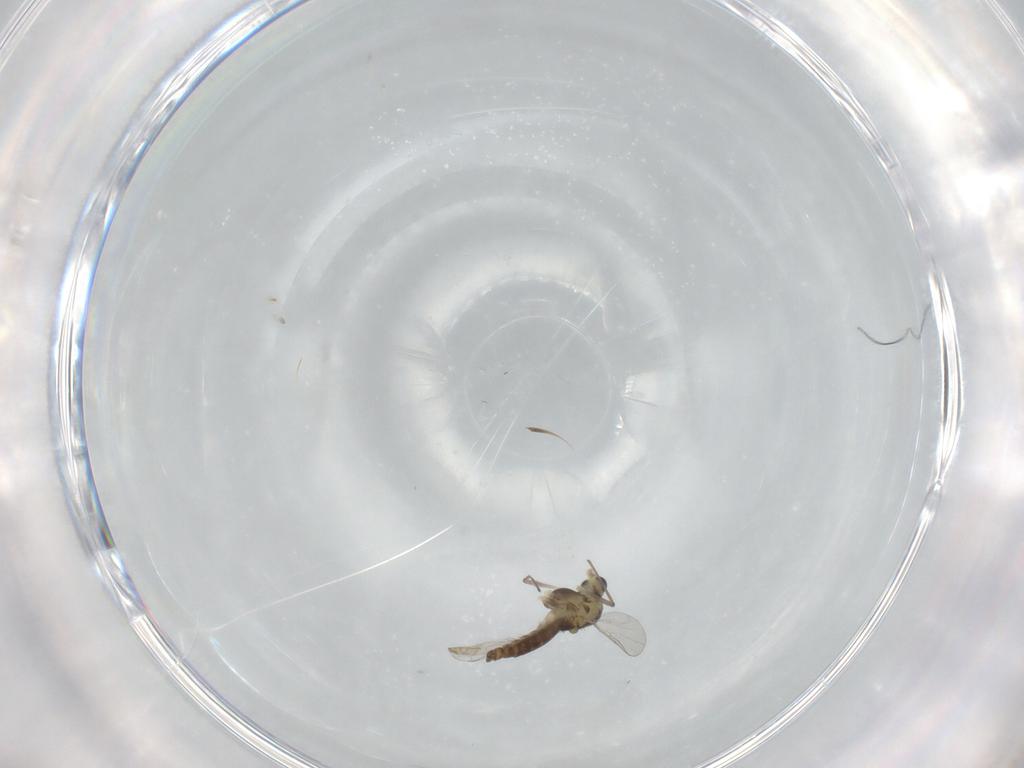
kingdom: Animalia
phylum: Arthropoda
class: Insecta
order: Diptera
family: Chironomidae
